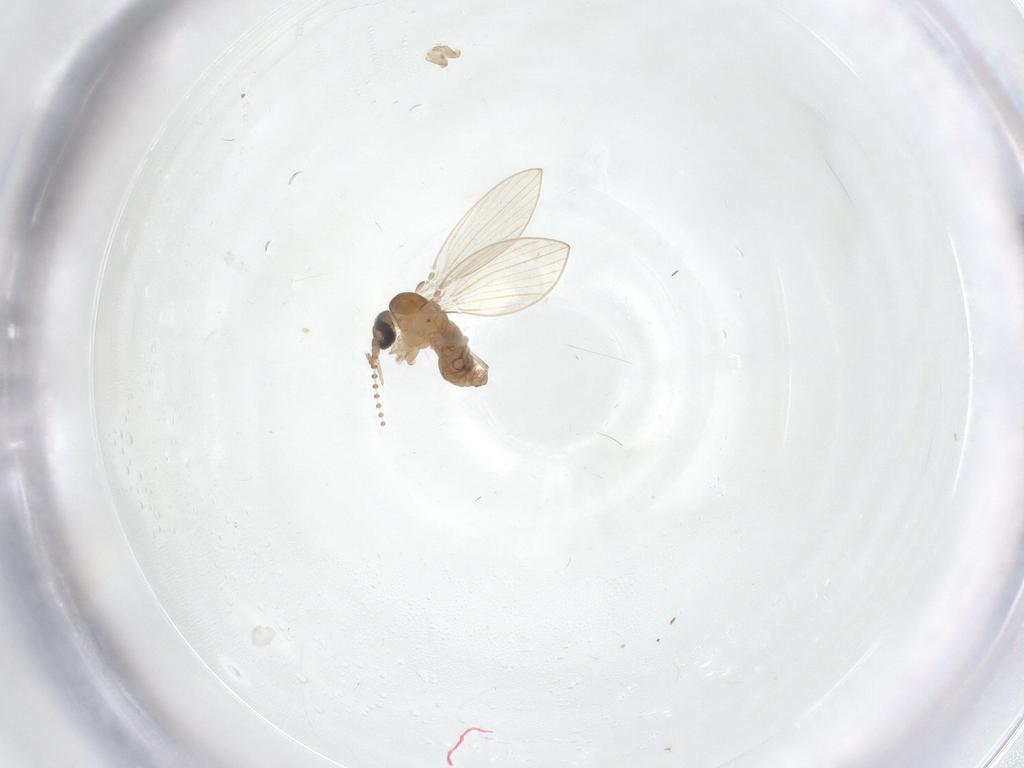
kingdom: Animalia
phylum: Arthropoda
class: Insecta
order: Diptera
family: Psychodidae
